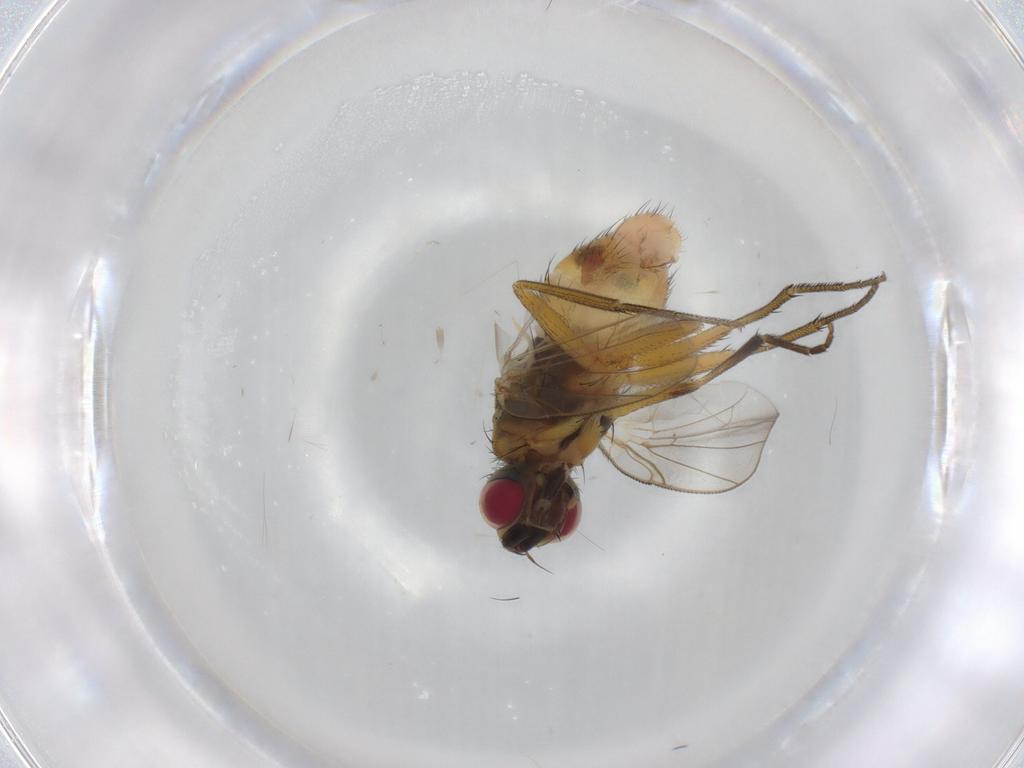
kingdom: Animalia
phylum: Arthropoda
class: Insecta
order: Diptera
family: Muscidae
